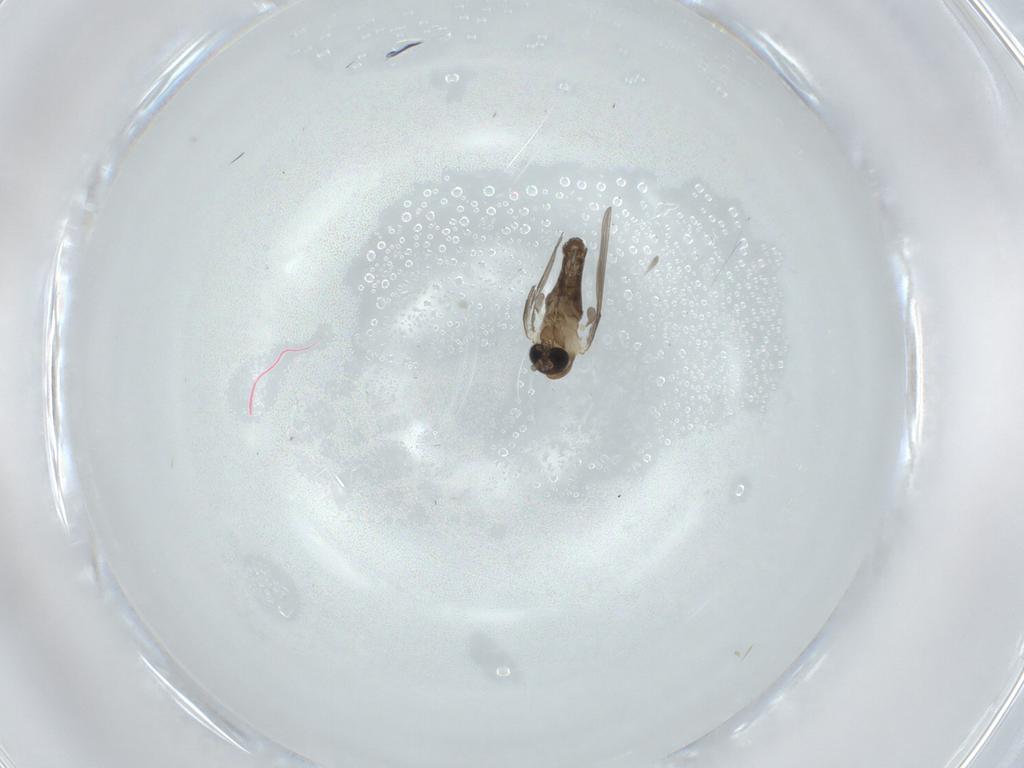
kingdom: Animalia
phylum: Arthropoda
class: Insecta
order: Diptera
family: Psychodidae
